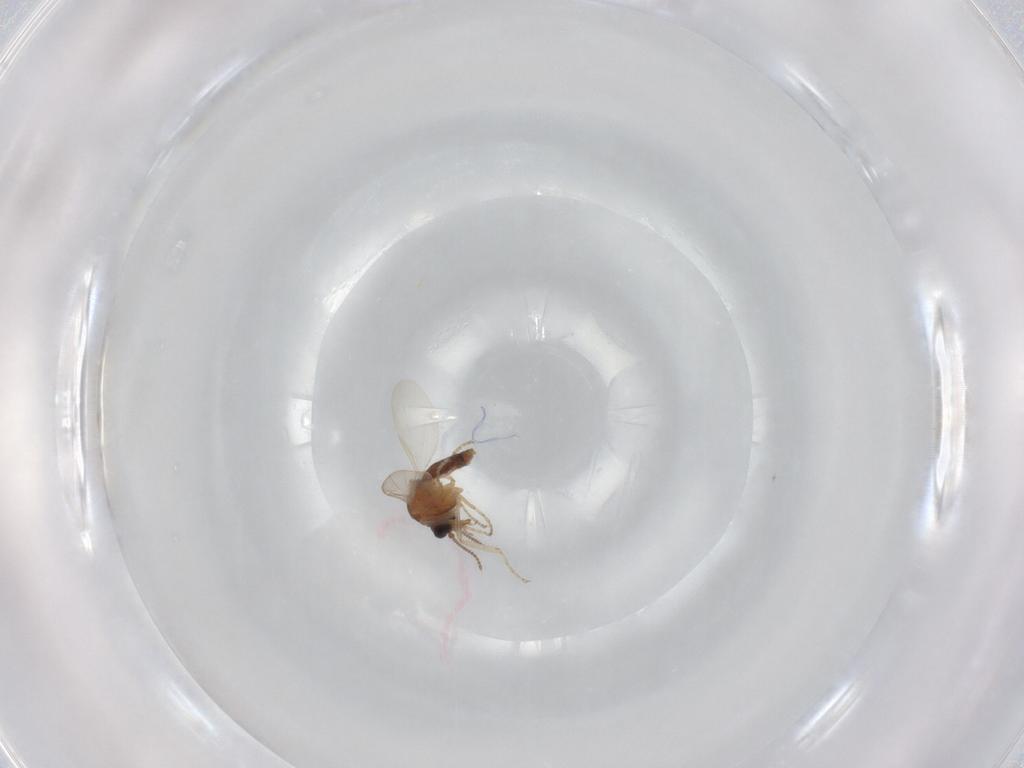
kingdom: Animalia
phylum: Arthropoda
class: Insecta
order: Diptera
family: Ceratopogonidae
